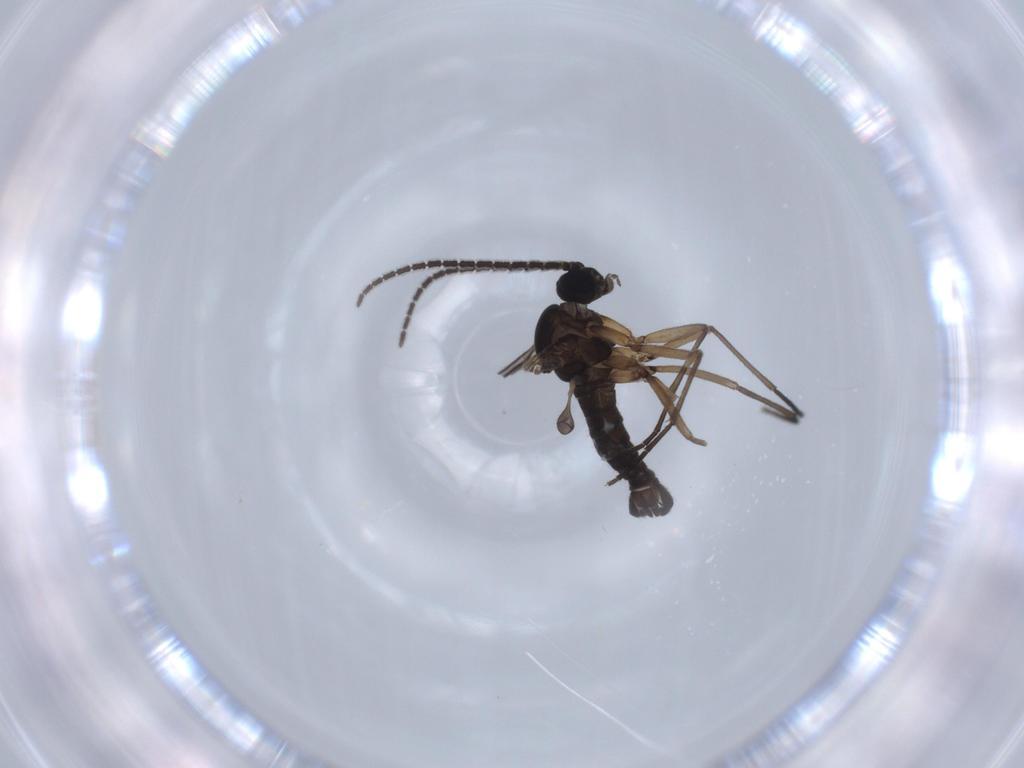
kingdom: Animalia
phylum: Arthropoda
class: Insecta
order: Diptera
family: Sciaridae
